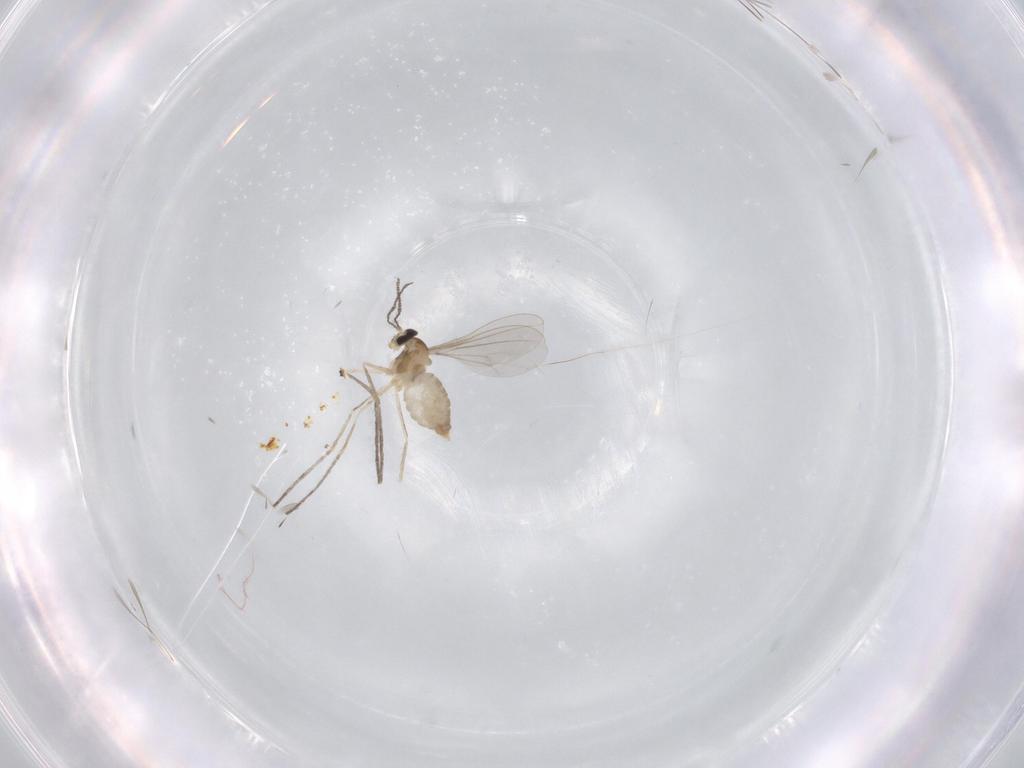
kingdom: Animalia
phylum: Arthropoda
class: Insecta
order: Diptera
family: Cecidomyiidae
